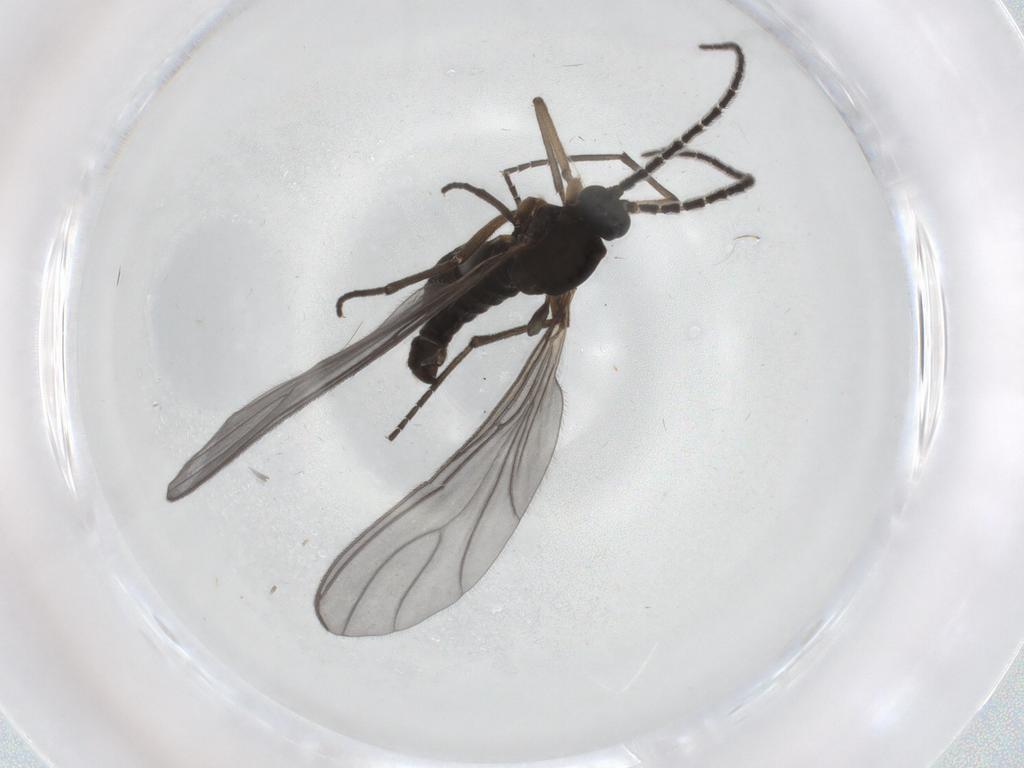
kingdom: Animalia
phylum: Arthropoda
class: Insecta
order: Diptera
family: Sciaridae
